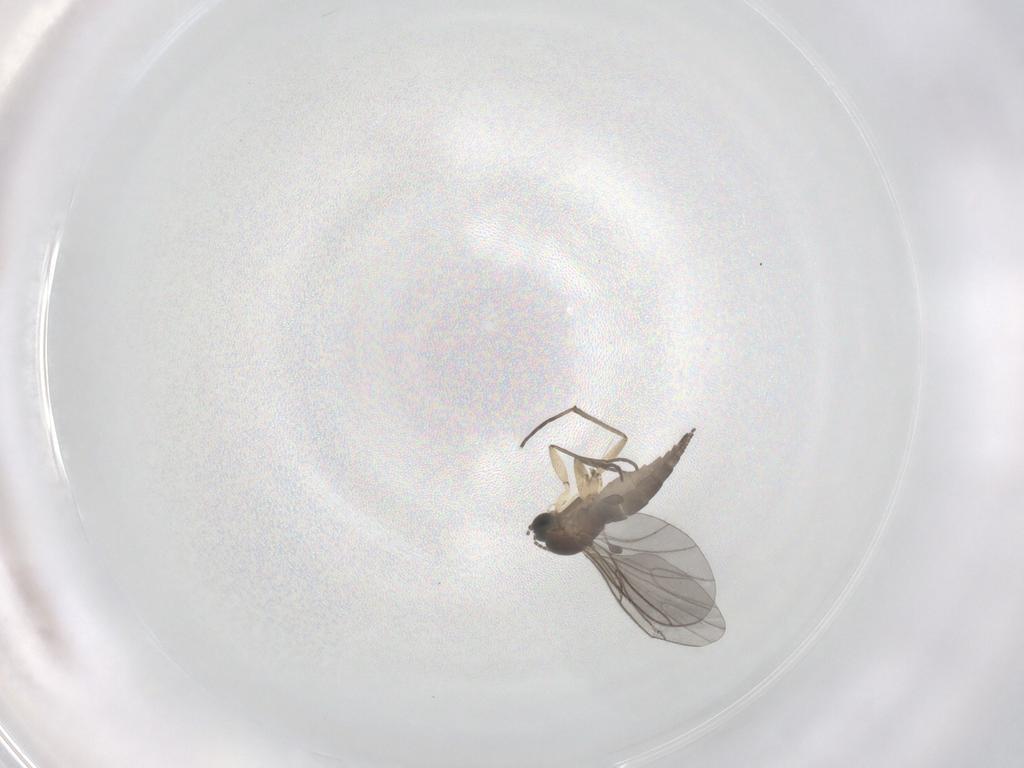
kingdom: Animalia
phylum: Arthropoda
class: Insecta
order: Diptera
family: Sciaridae
